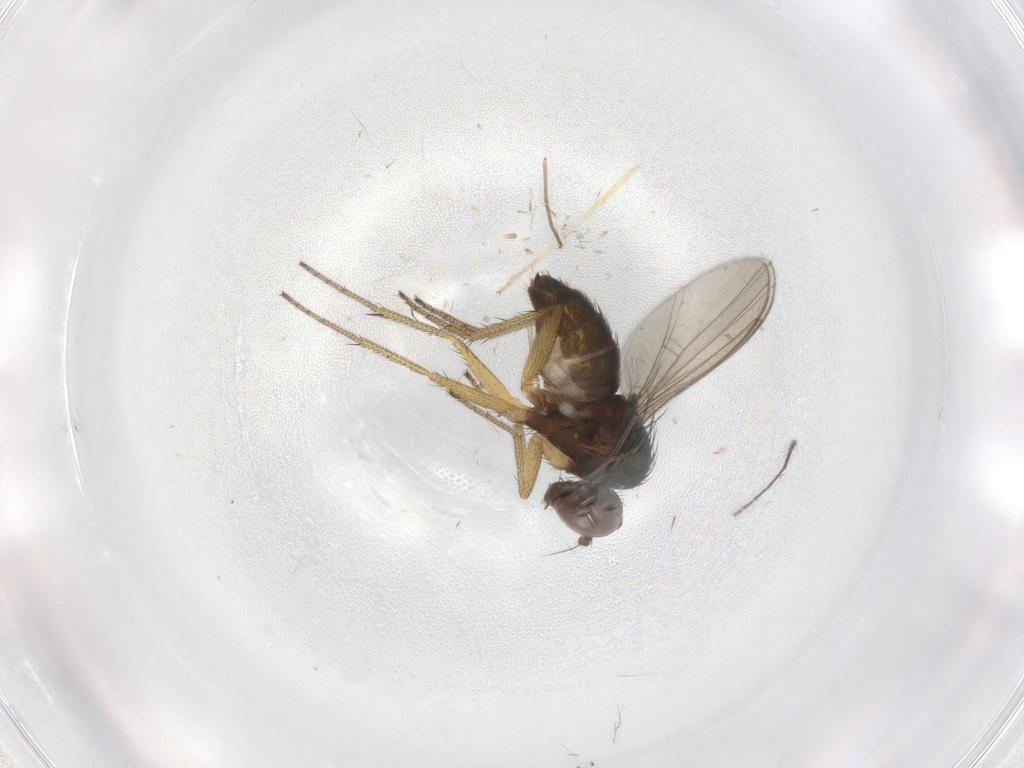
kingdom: Animalia
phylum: Arthropoda
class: Insecta
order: Diptera
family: Chironomidae
